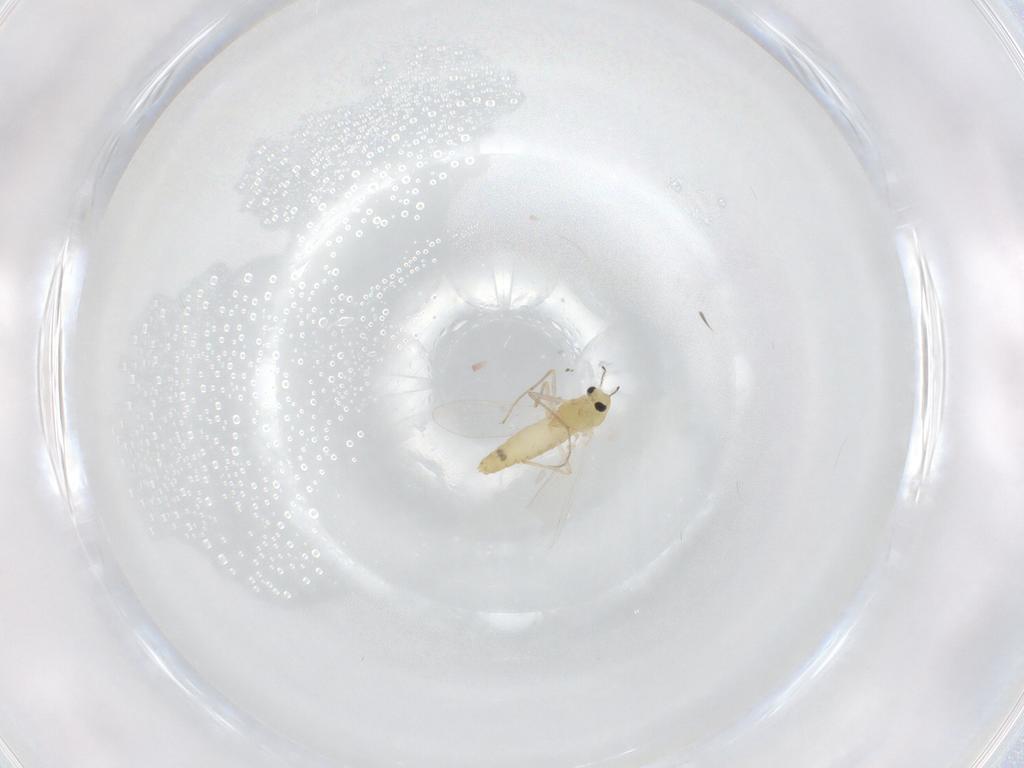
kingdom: Animalia
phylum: Arthropoda
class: Insecta
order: Diptera
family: Chironomidae
